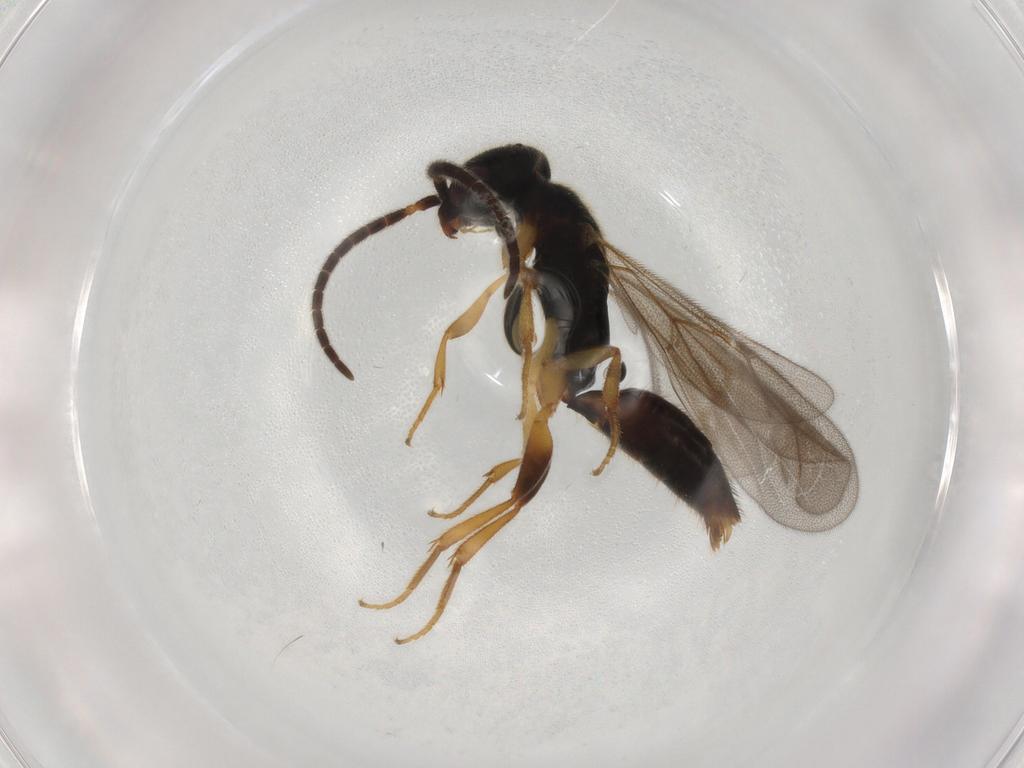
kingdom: Animalia
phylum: Arthropoda
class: Insecta
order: Hymenoptera
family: Bethylidae
